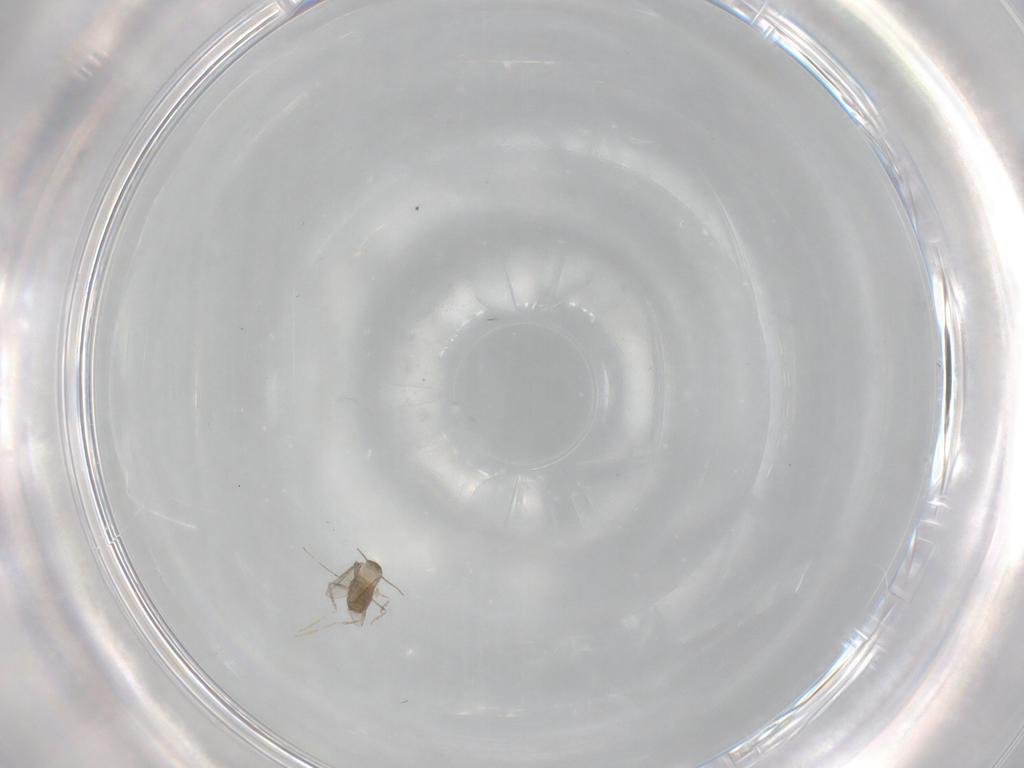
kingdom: Animalia
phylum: Arthropoda
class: Insecta
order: Diptera
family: Cecidomyiidae
